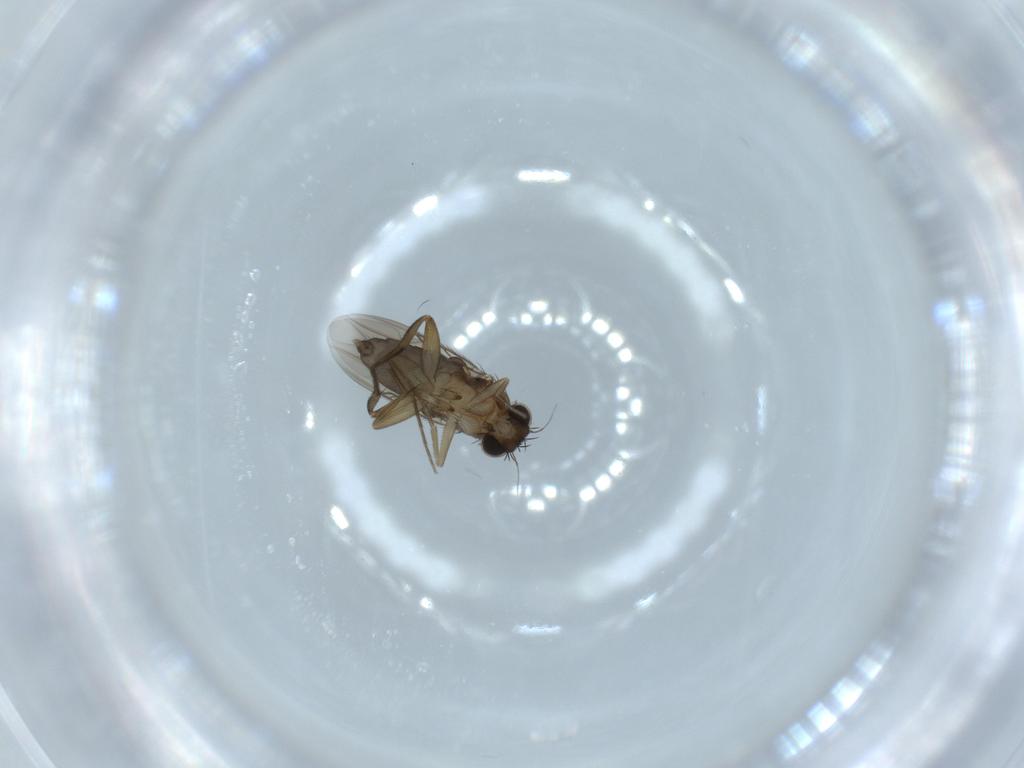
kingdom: Animalia
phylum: Arthropoda
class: Insecta
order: Diptera
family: Phoridae
